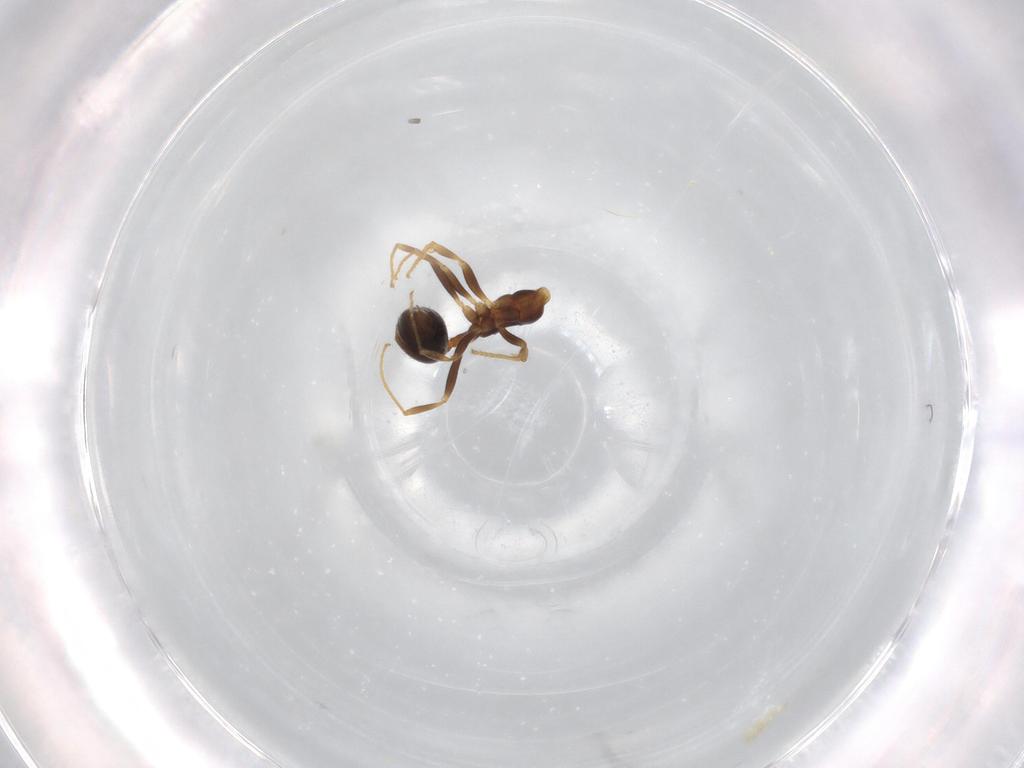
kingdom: Animalia
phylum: Arthropoda
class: Insecta
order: Hymenoptera
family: Formicidae
